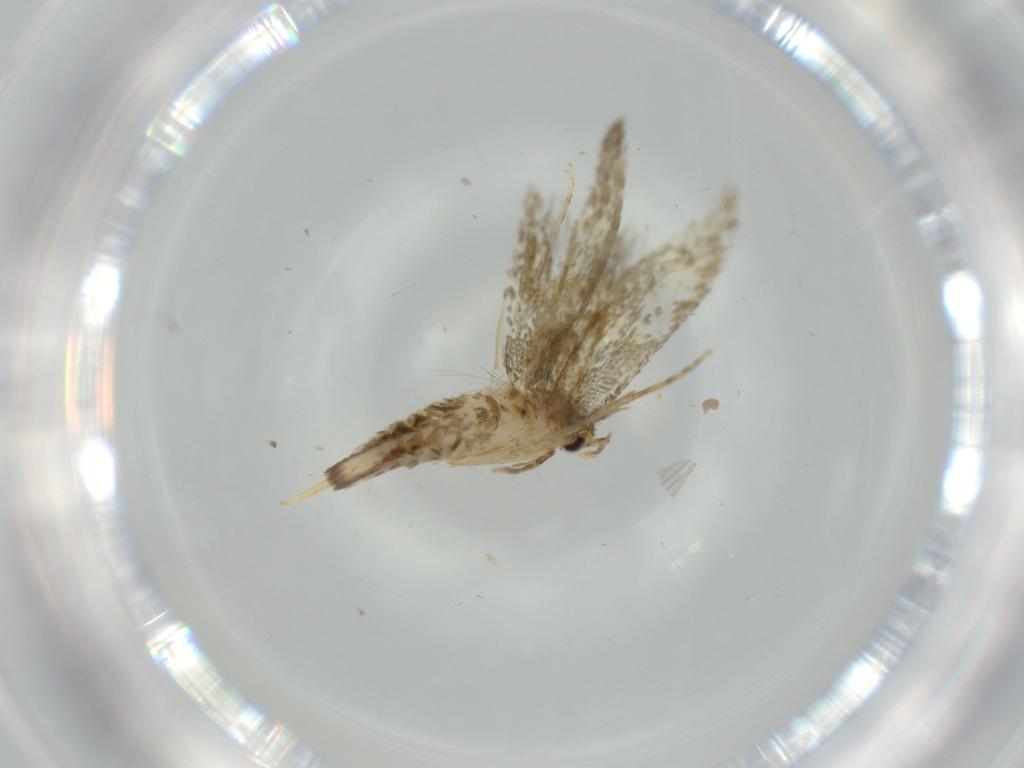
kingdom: Animalia
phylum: Arthropoda
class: Insecta
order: Lepidoptera
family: Tineidae
